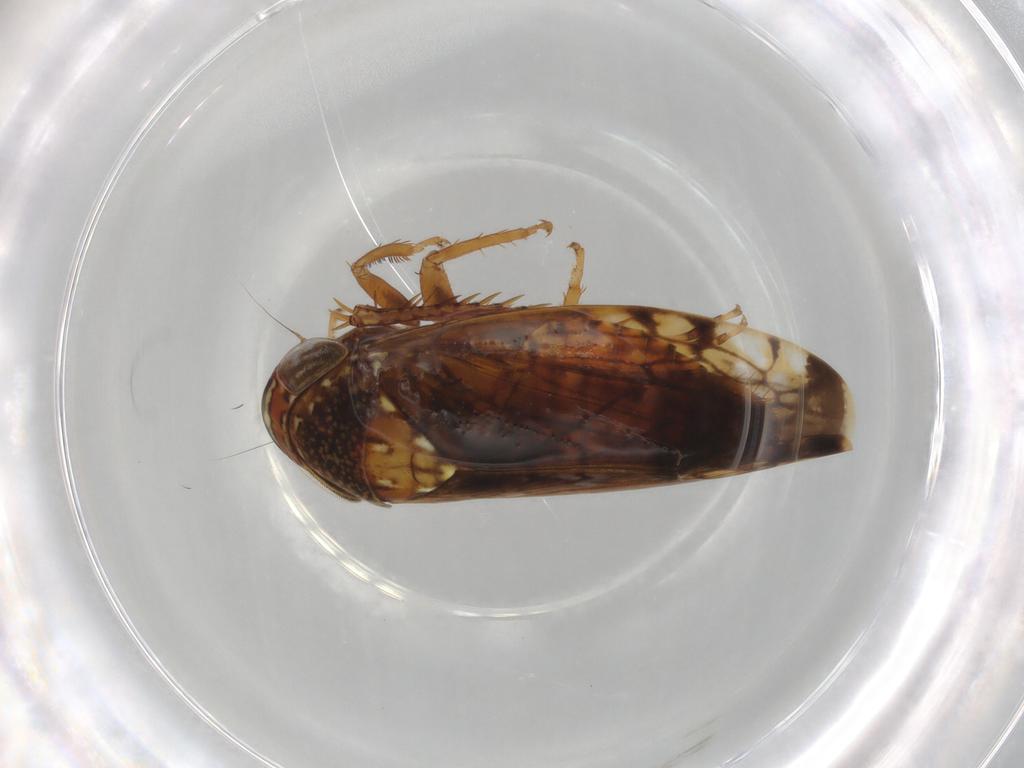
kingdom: Animalia
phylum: Arthropoda
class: Insecta
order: Hemiptera
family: Cicadellidae
